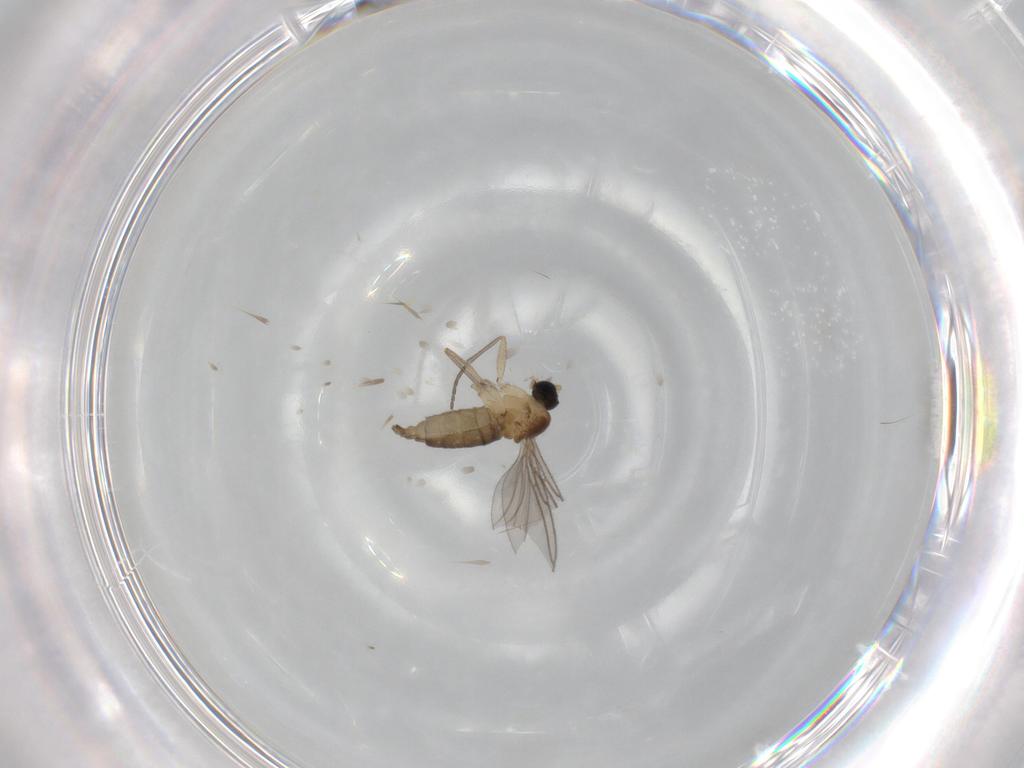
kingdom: Animalia
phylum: Arthropoda
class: Insecta
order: Diptera
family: Sciaridae
